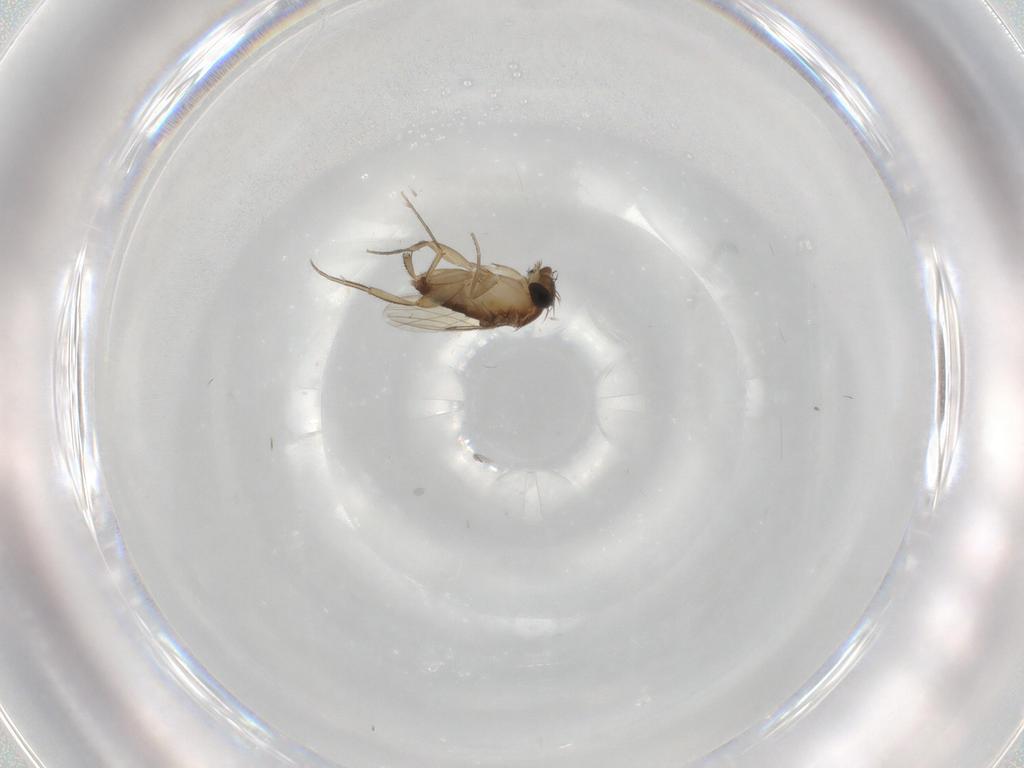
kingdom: Animalia
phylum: Arthropoda
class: Insecta
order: Diptera
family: Phoridae
